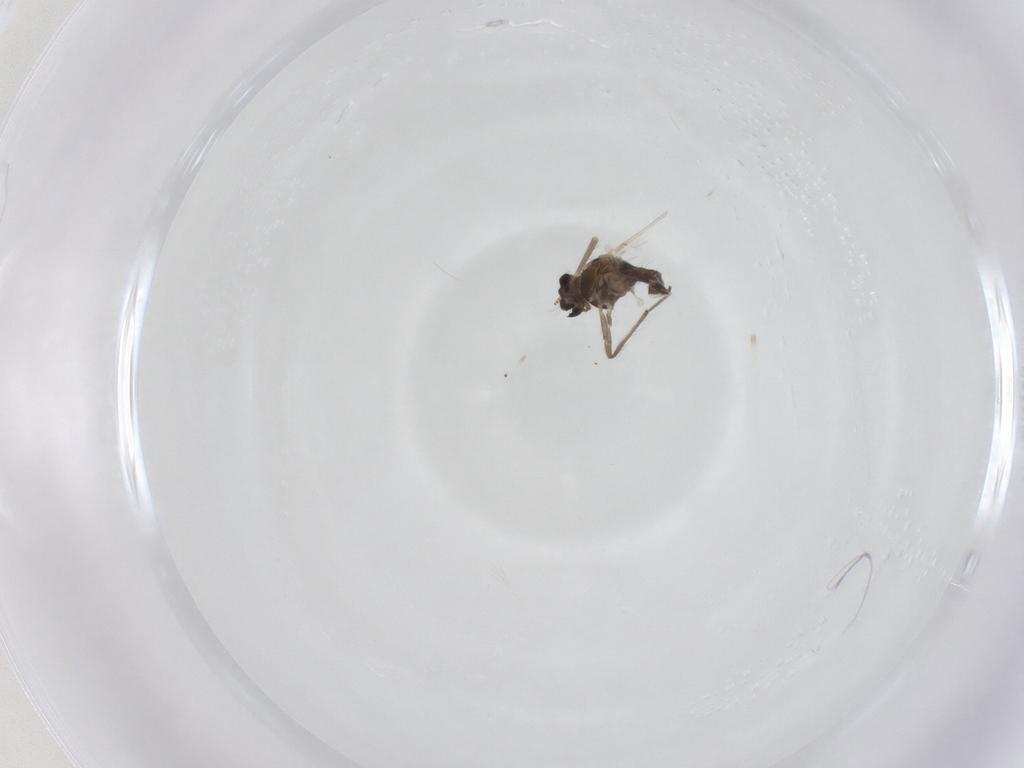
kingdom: Animalia
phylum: Arthropoda
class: Insecta
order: Diptera
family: Chironomidae
